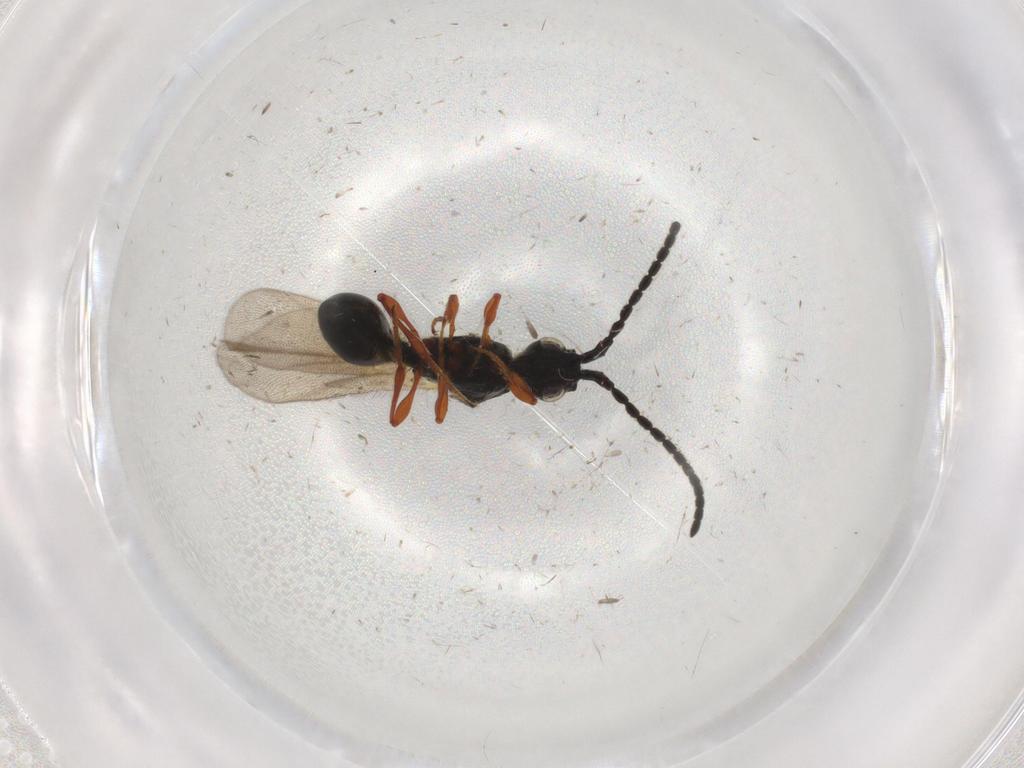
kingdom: Animalia
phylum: Arthropoda
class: Insecta
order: Hymenoptera
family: Diapriidae
